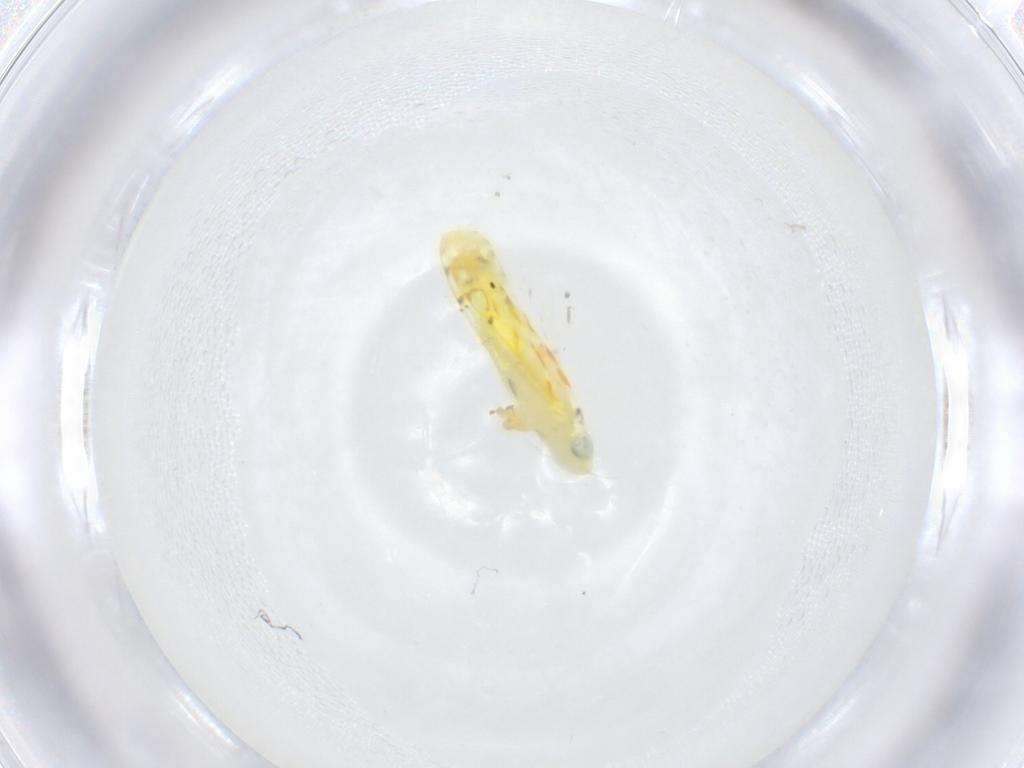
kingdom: Animalia
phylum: Arthropoda
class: Insecta
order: Hemiptera
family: Cicadellidae
